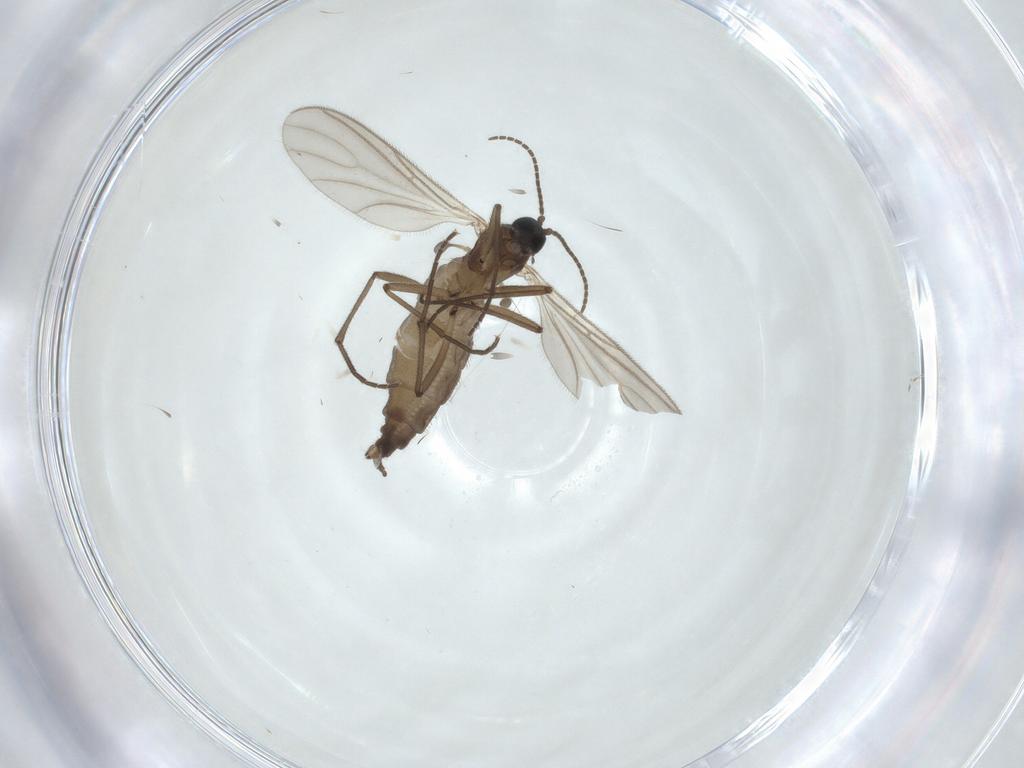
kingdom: Animalia
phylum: Arthropoda
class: Insecta
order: Diptera
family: Sciaridae
